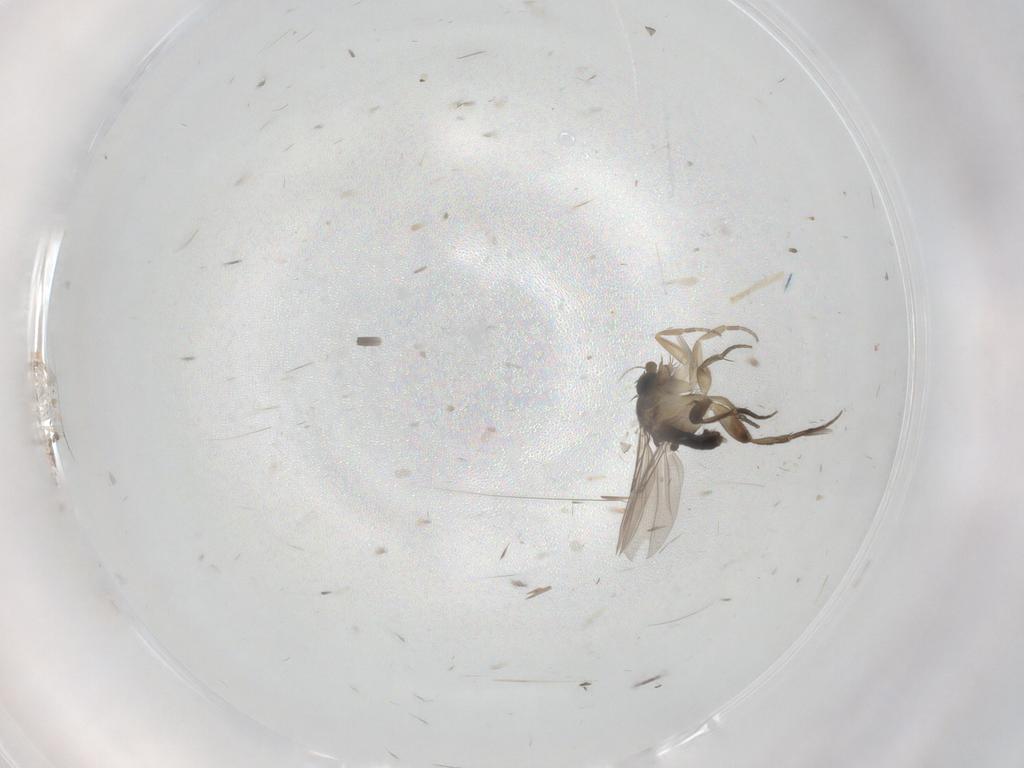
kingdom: Animalia
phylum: Arthropoda
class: Insecta
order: Diptera
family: Phoridae
